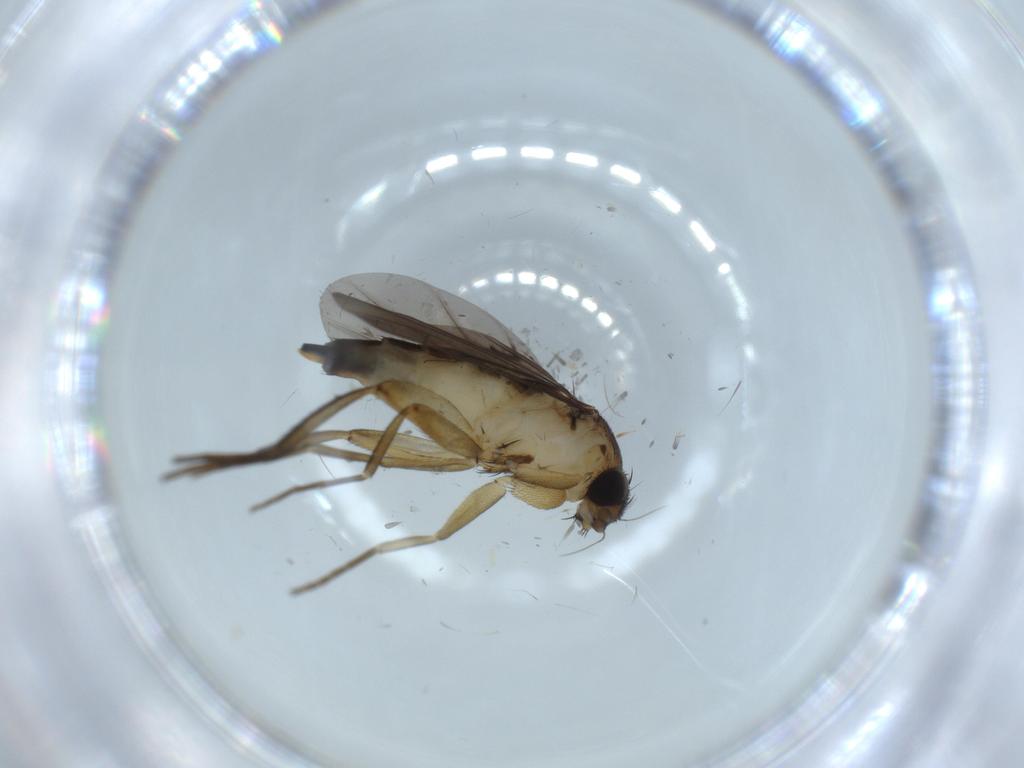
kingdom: Animalia
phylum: Arthropoda
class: Insecta
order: Diptera
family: Phoridae
